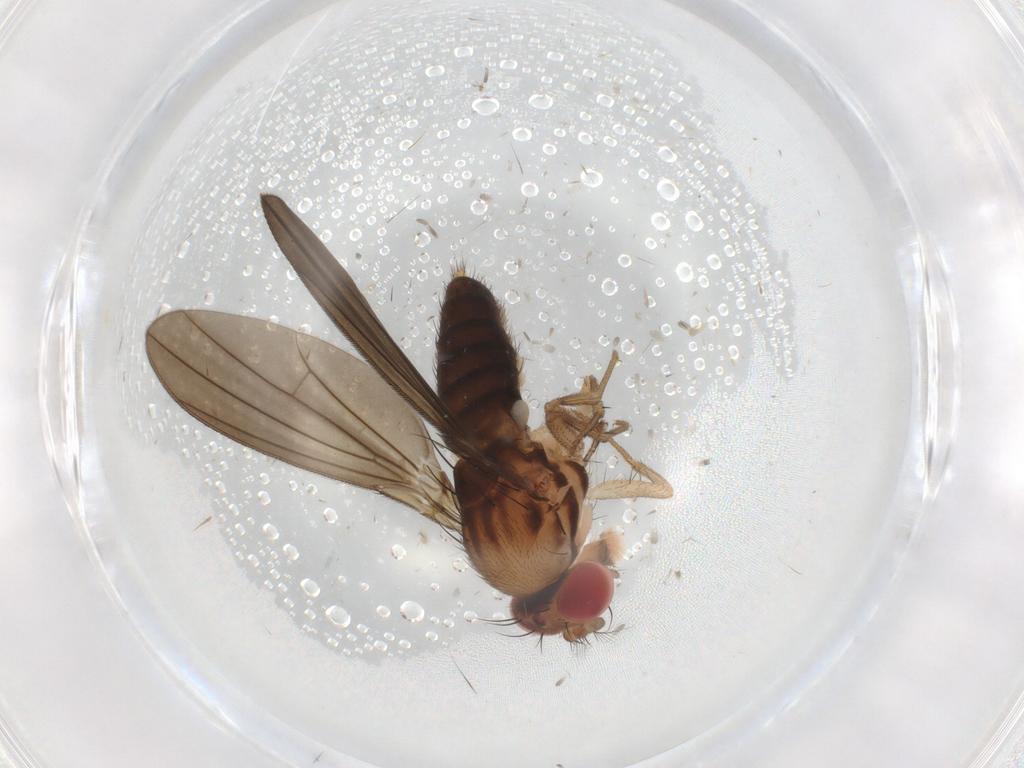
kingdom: Animalia
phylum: Arthropoda
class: Insecta
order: Diptera
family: Drosophilidae
